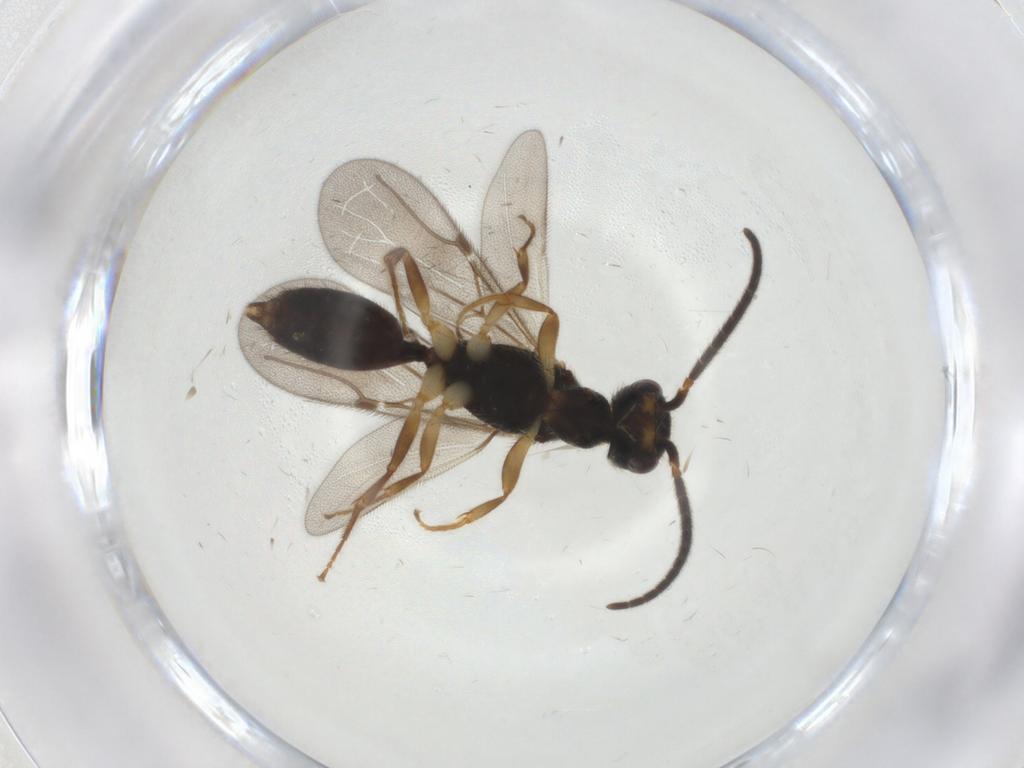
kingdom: Animalia
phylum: Arthropoda
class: Insecta
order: Hymenoptera
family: Bethylidae
